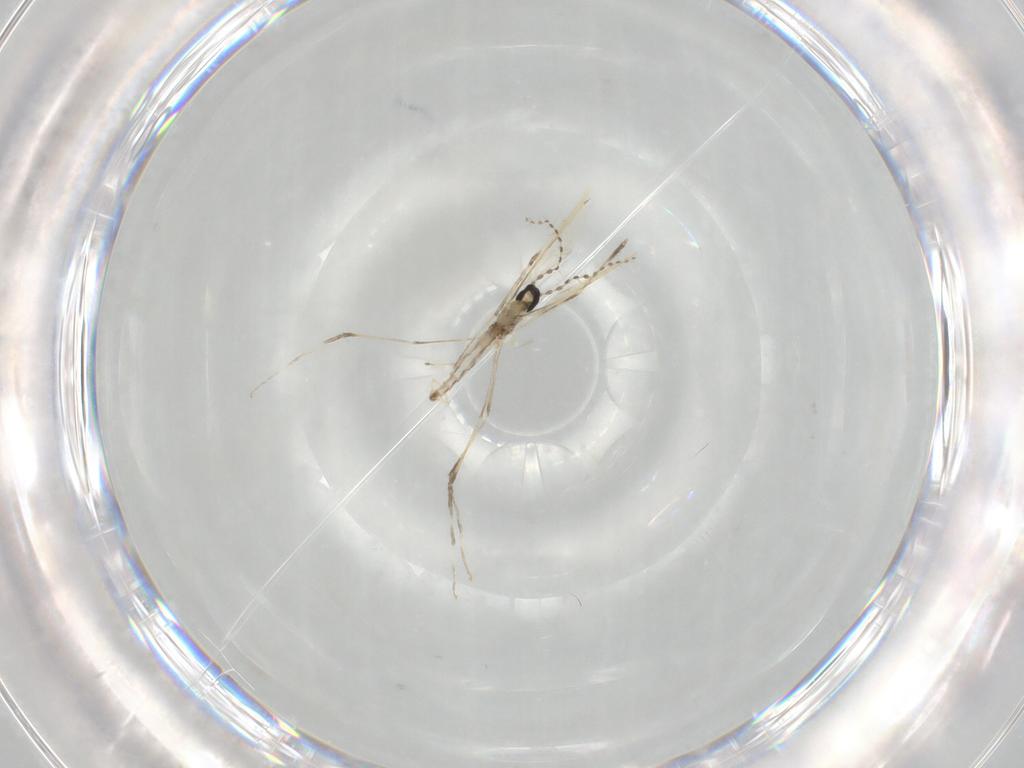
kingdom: Animalia
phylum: Arthropoda
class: Insecta
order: Diptera
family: Cecidomyiidae
